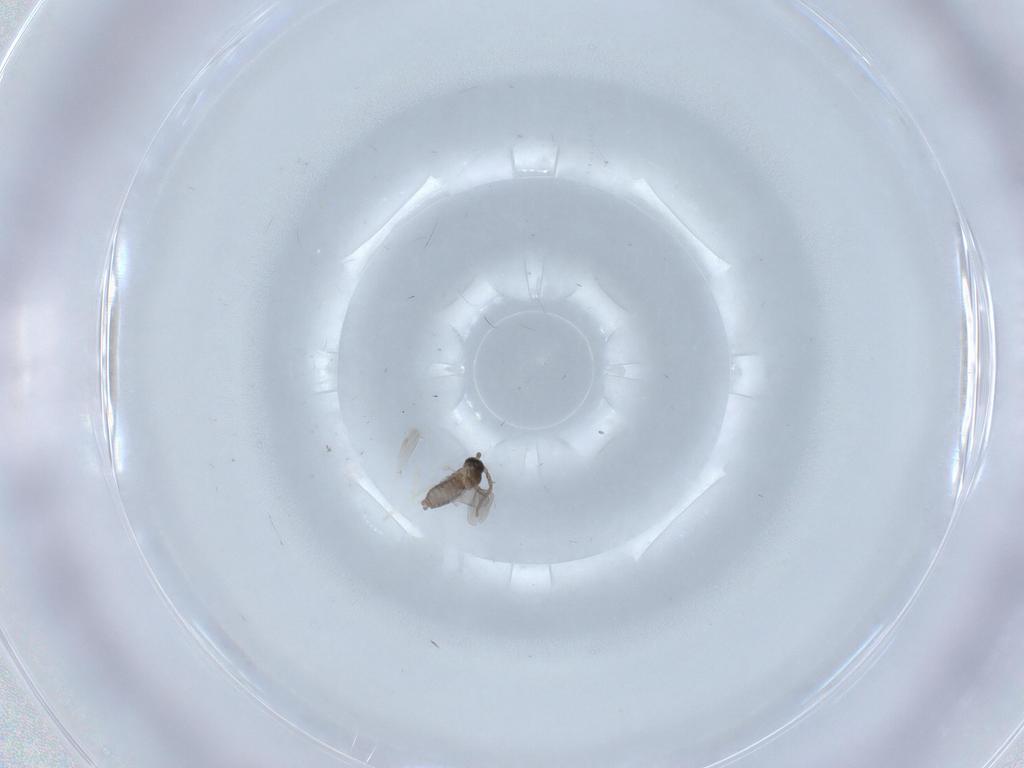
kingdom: Animalia
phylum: Arthropoda
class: Insecta
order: Diptera
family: Cecidomyiidae
